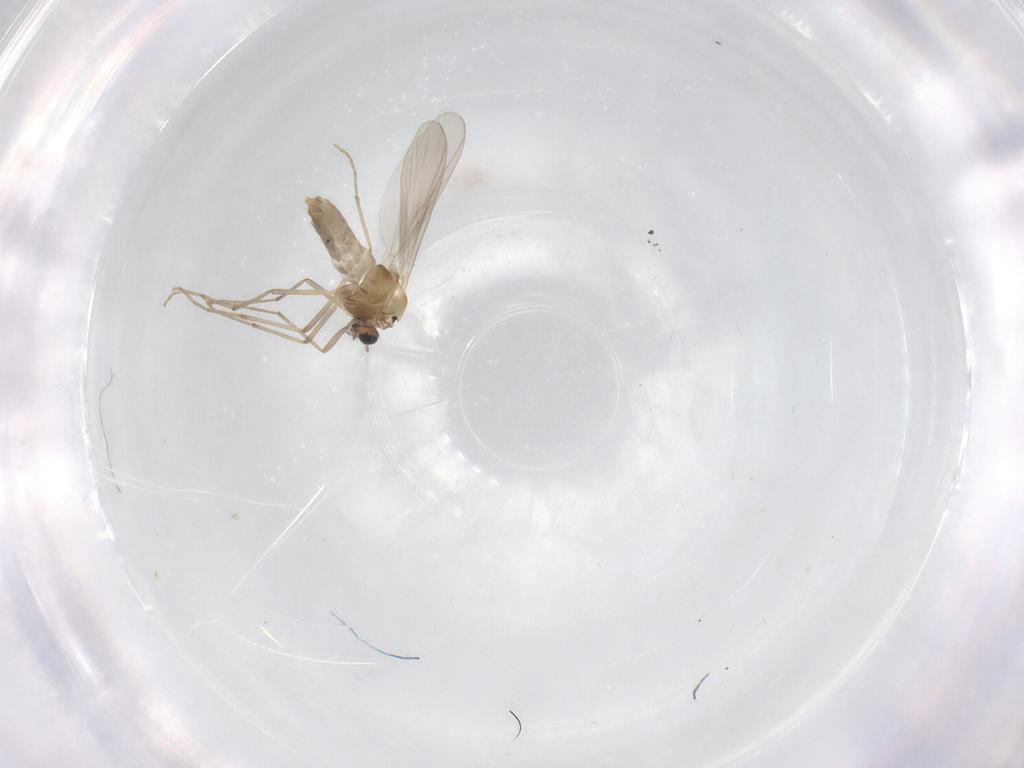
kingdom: Animalia
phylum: Arthropoda
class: Insecta
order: Diptera
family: Chironomidae
